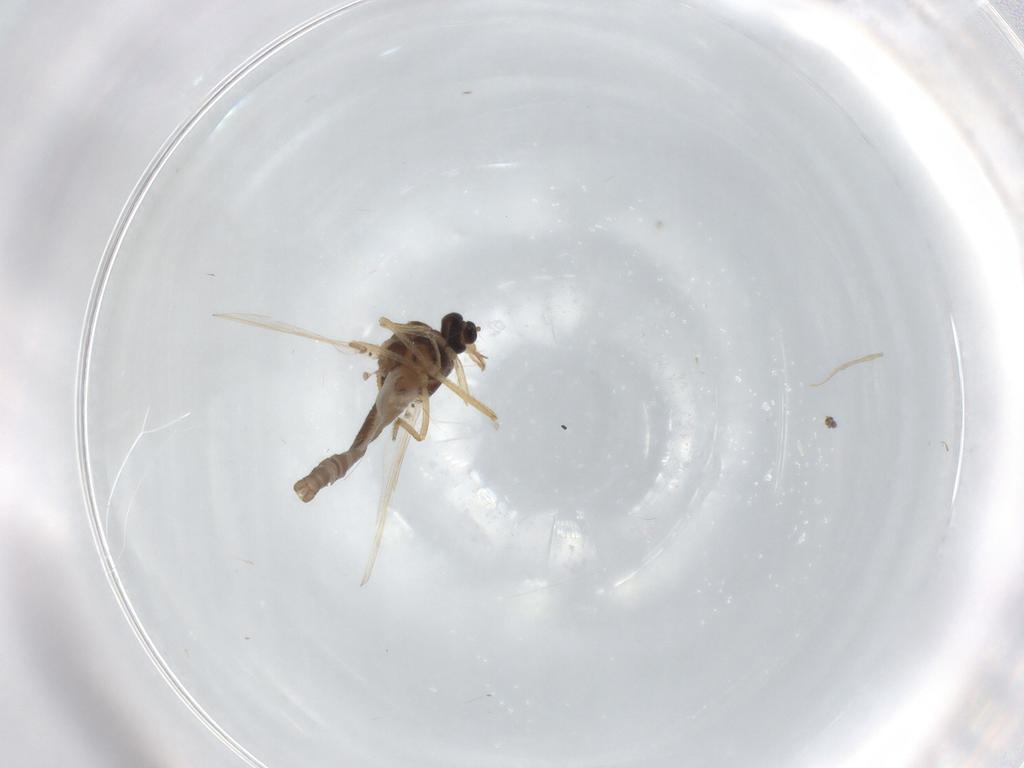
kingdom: Animalia
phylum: Arthropoda
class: Insecta
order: Diptera
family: Ceratopogonidae
